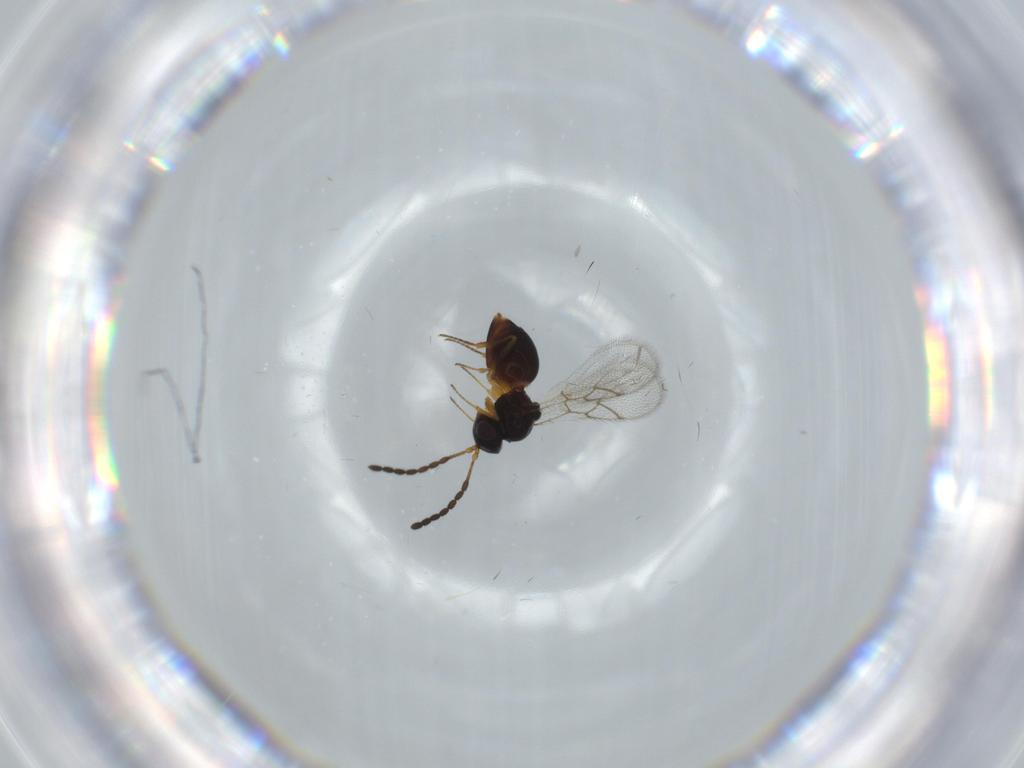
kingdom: Animalia
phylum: Arthropoda
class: Insecta
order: Hymenoptera
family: Figitidae
